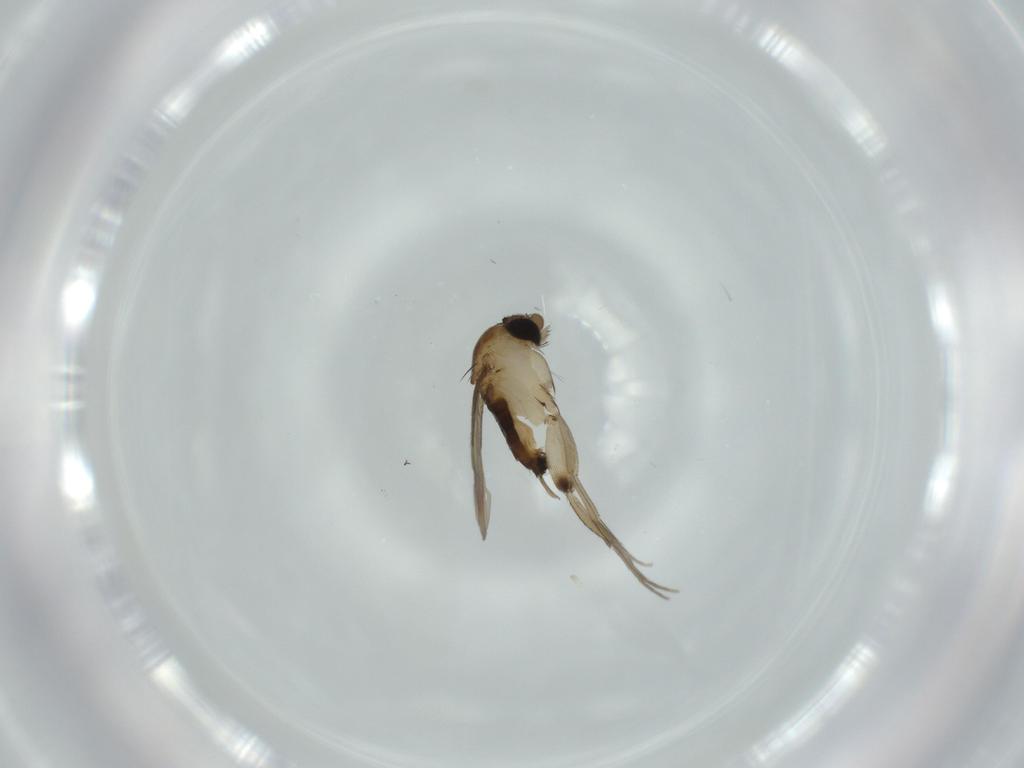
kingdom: Animalia
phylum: Arthropoda
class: Insecta
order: Diptera
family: Phoridae
